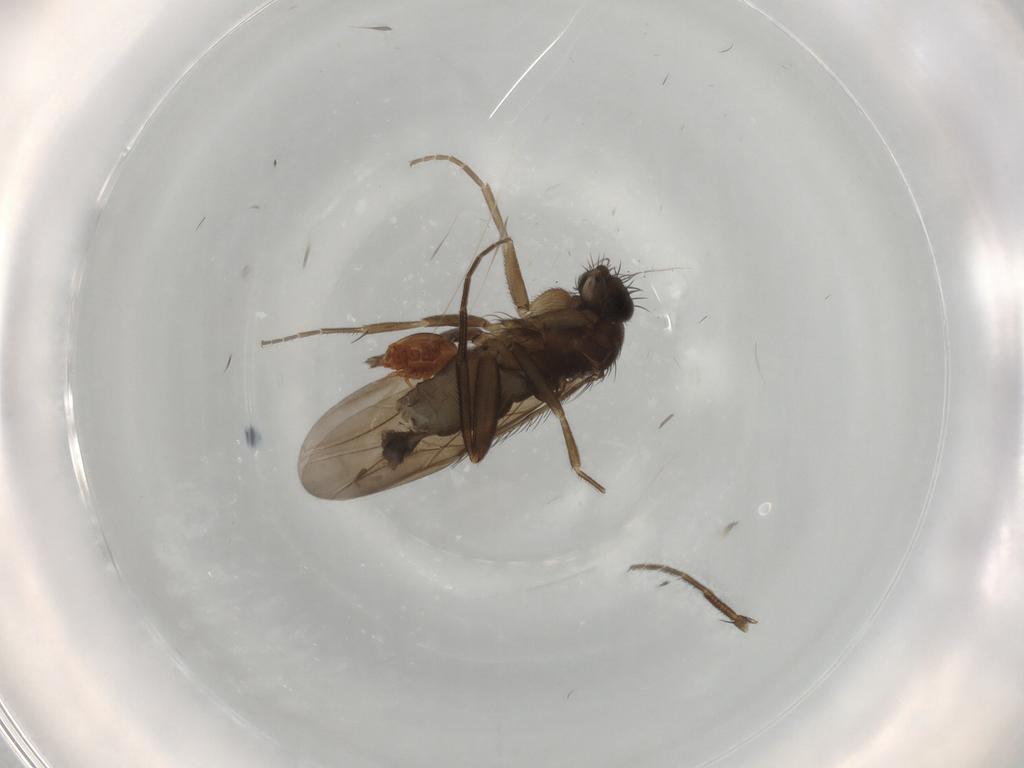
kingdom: Animalia
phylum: Arthropoda
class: Insecta
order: Diptera
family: Phoridae
